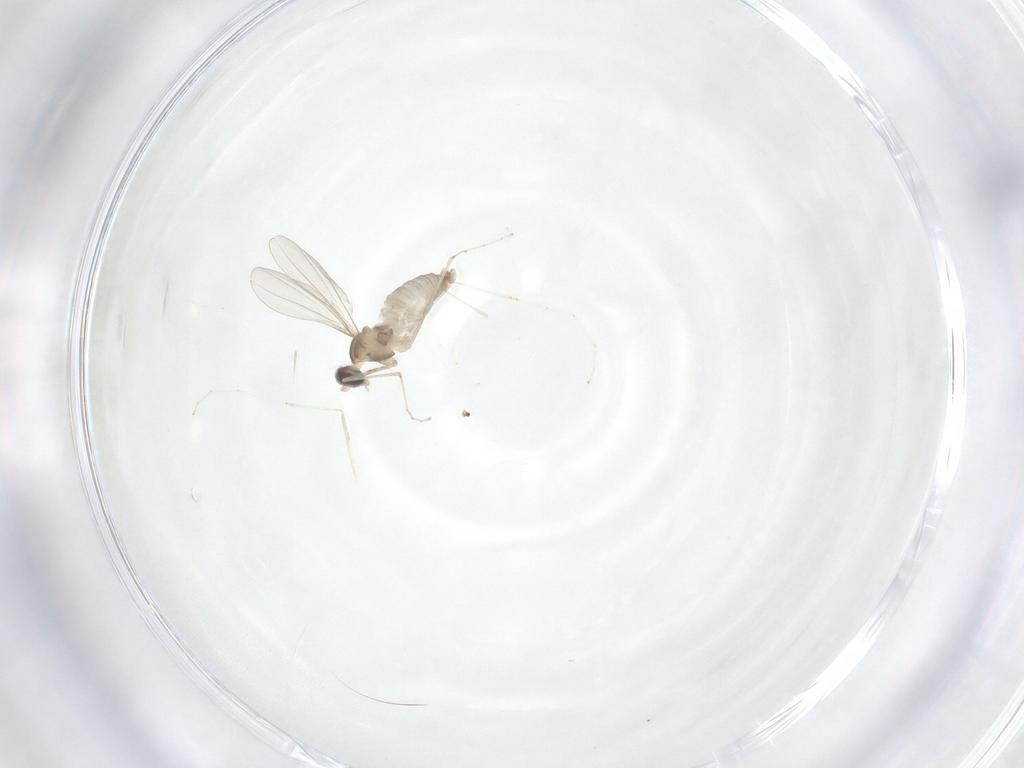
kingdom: Animalia
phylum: Arthropoda
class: Insecta
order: Diptera
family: Cecidomyiidae
